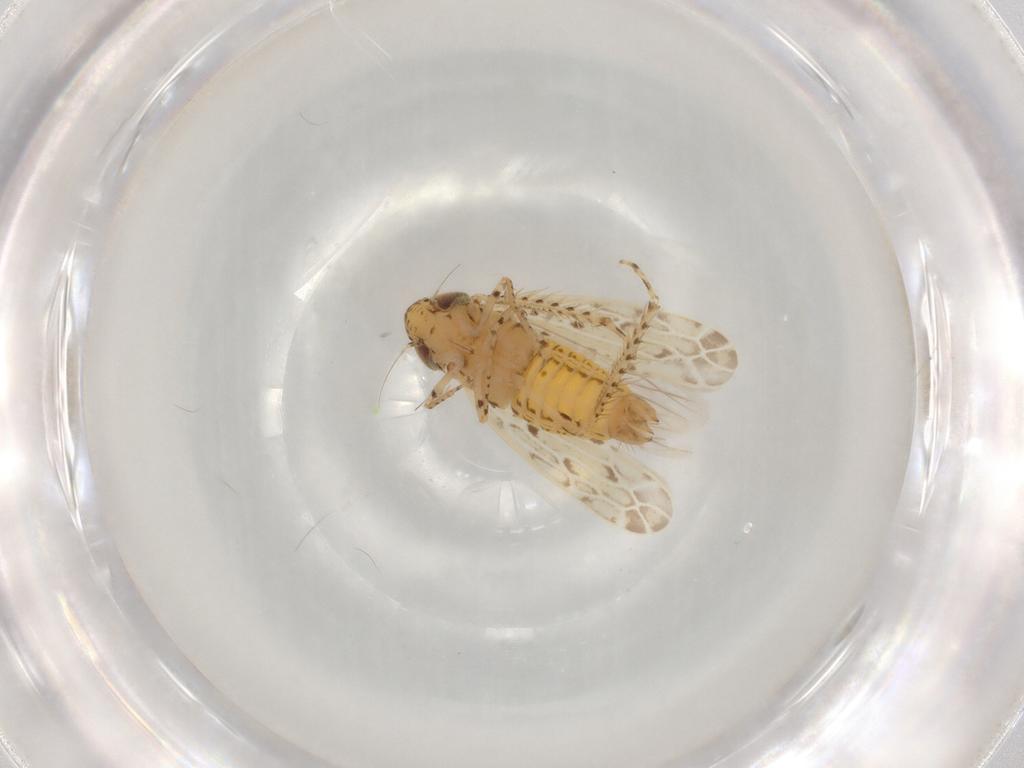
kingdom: Animalia
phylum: Arthropoda
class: Insecta
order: Hemiptera
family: Cicadellidae
